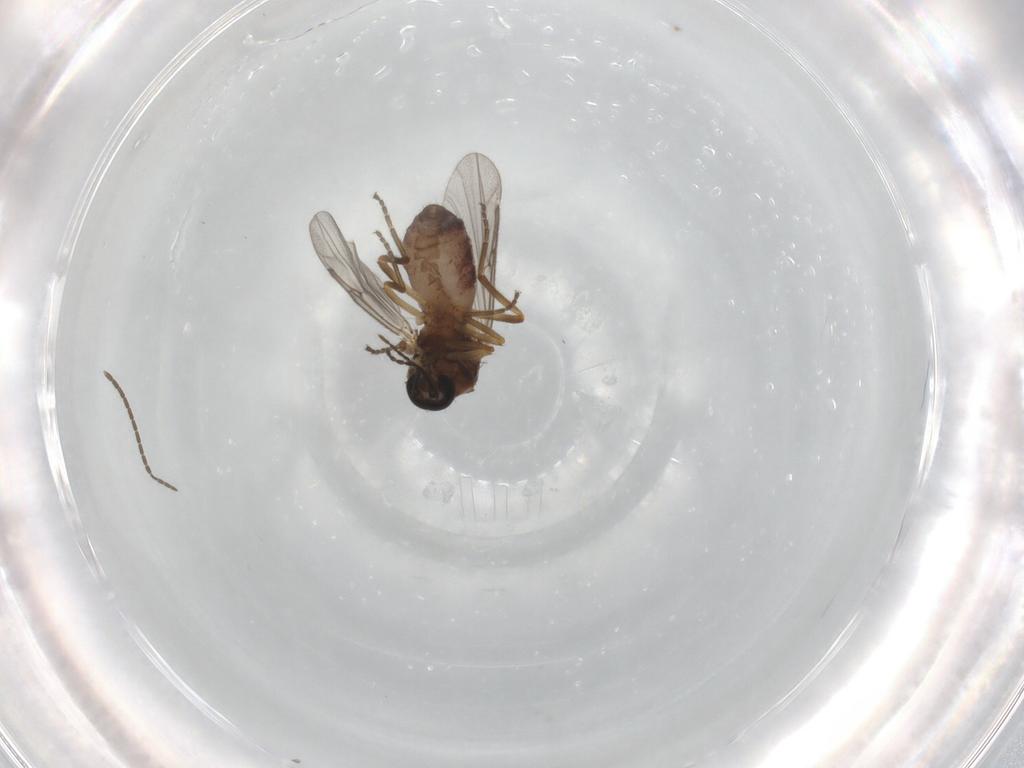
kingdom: Animalia
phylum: Arthropoda
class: Insecta
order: Diptera
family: Ceratopogonidae
